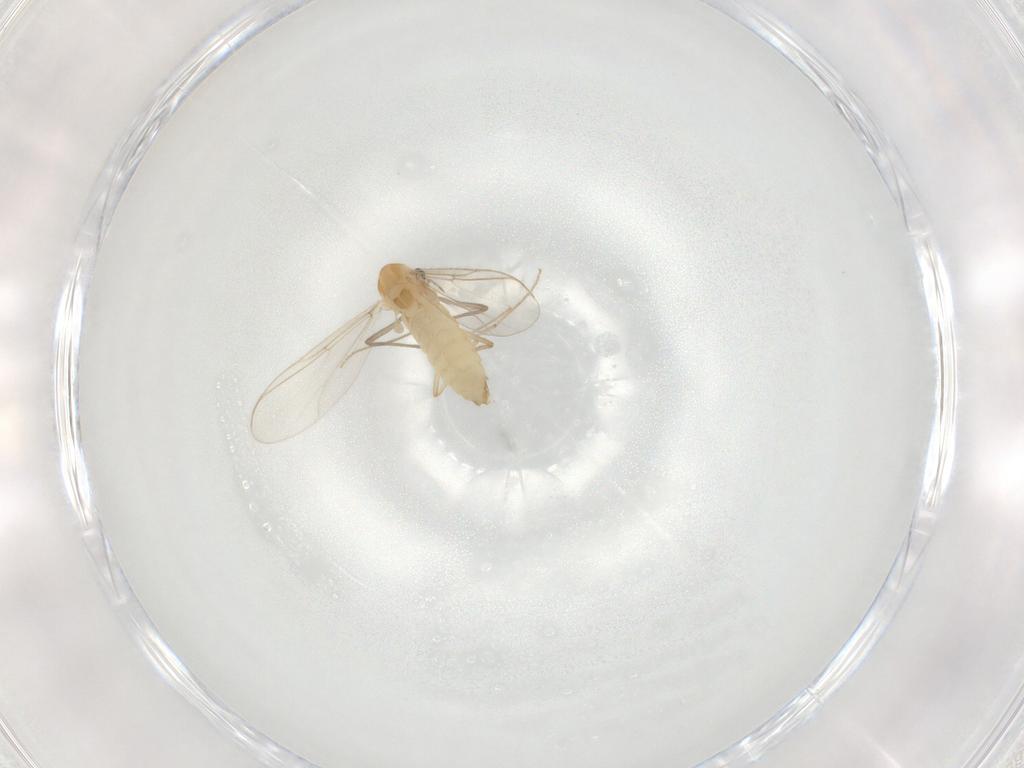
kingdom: Animalia
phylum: Arthropoda
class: Insecta
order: Diptera
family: Chironomidae
